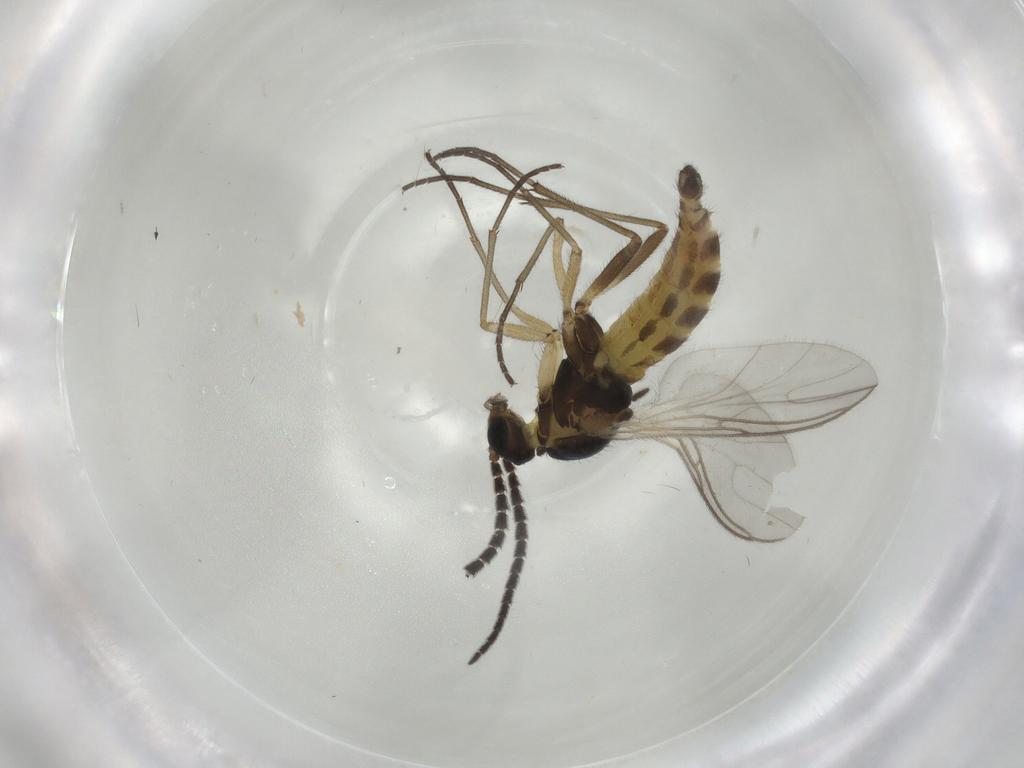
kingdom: Animalia
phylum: Arthropoda
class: Insecta
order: Diptera
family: Sciaridae
